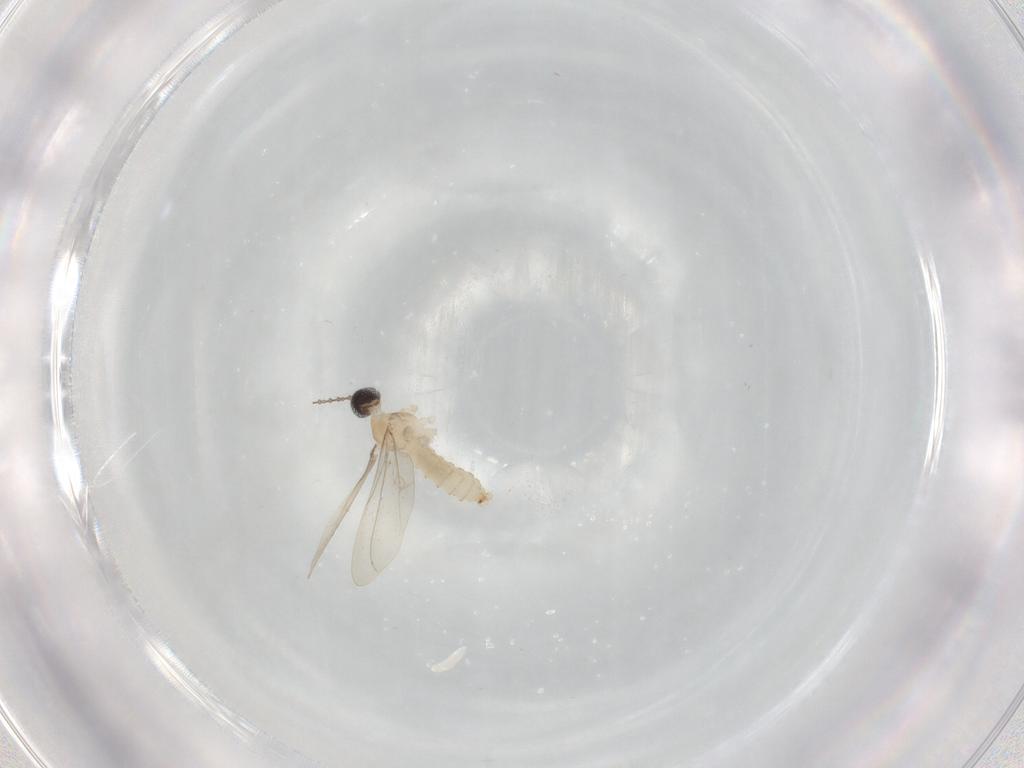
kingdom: Animalia
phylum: Arthropoda
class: Insecta
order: Diptera
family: Cecidomyiidae
